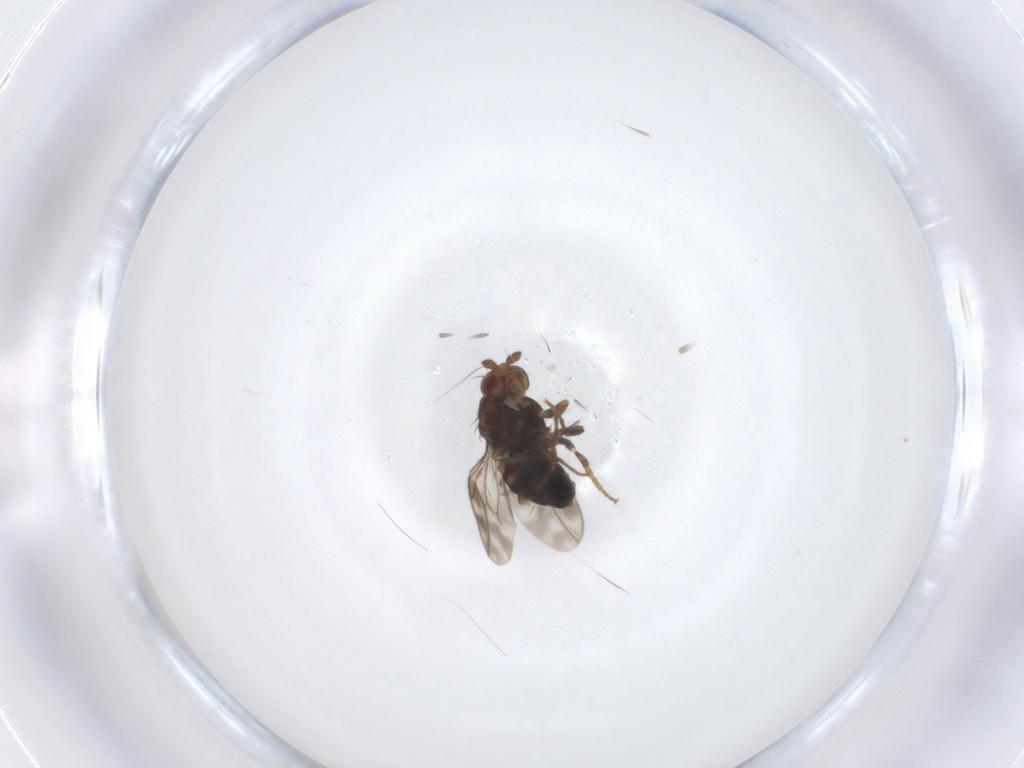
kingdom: Animalia
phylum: Arthropoda
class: Insecta
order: Diptera
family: Sphaeroceridae
